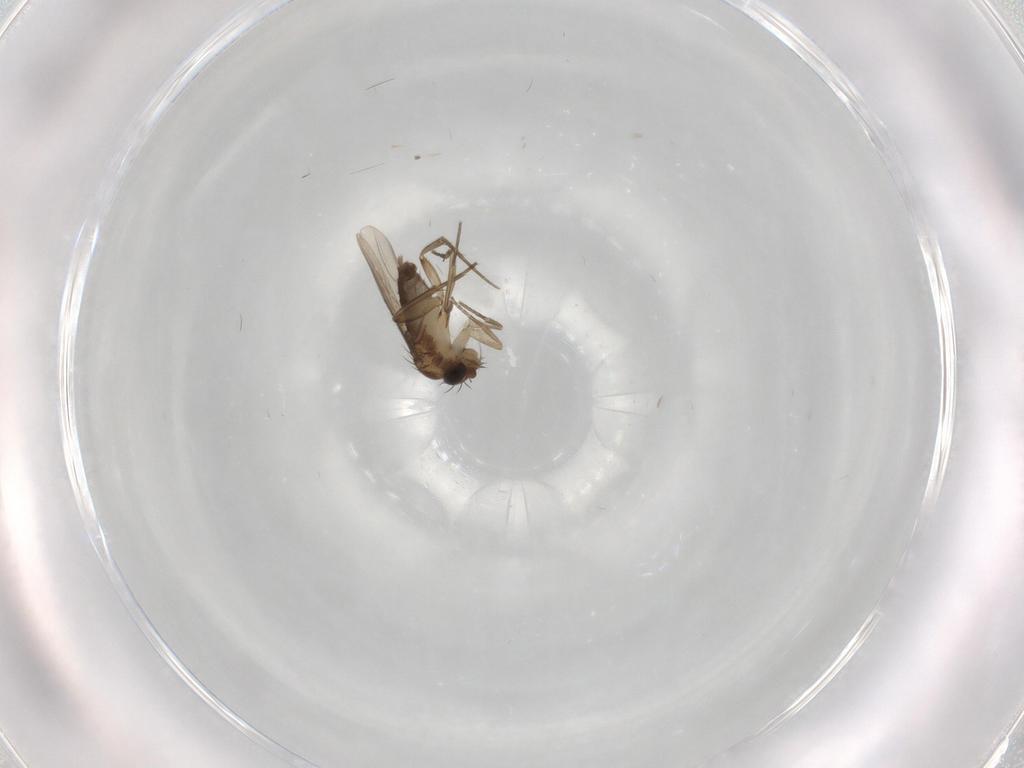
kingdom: Animalia
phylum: Arthropoda
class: Insecta
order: Diptera
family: Phoridae
